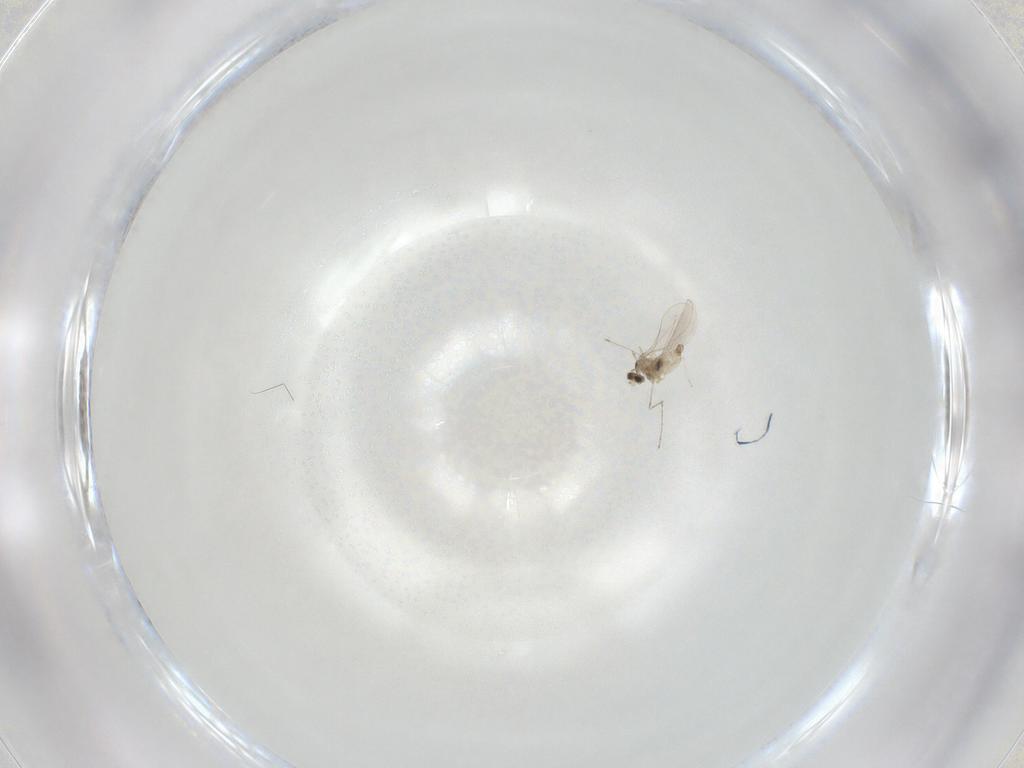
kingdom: Animalia
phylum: Arthropoda
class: Insecta
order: Diptera
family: Cecidomyiidae
